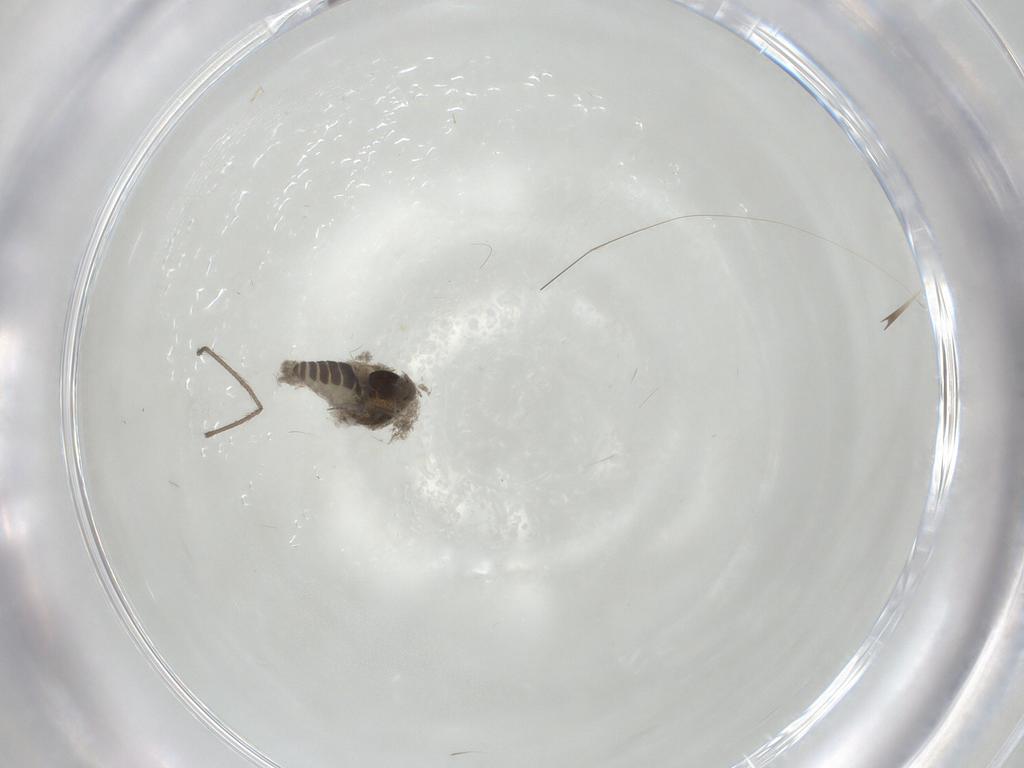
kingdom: Animalia
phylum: Arthropoda
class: Insecta
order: Diptera
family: Limoniidae
